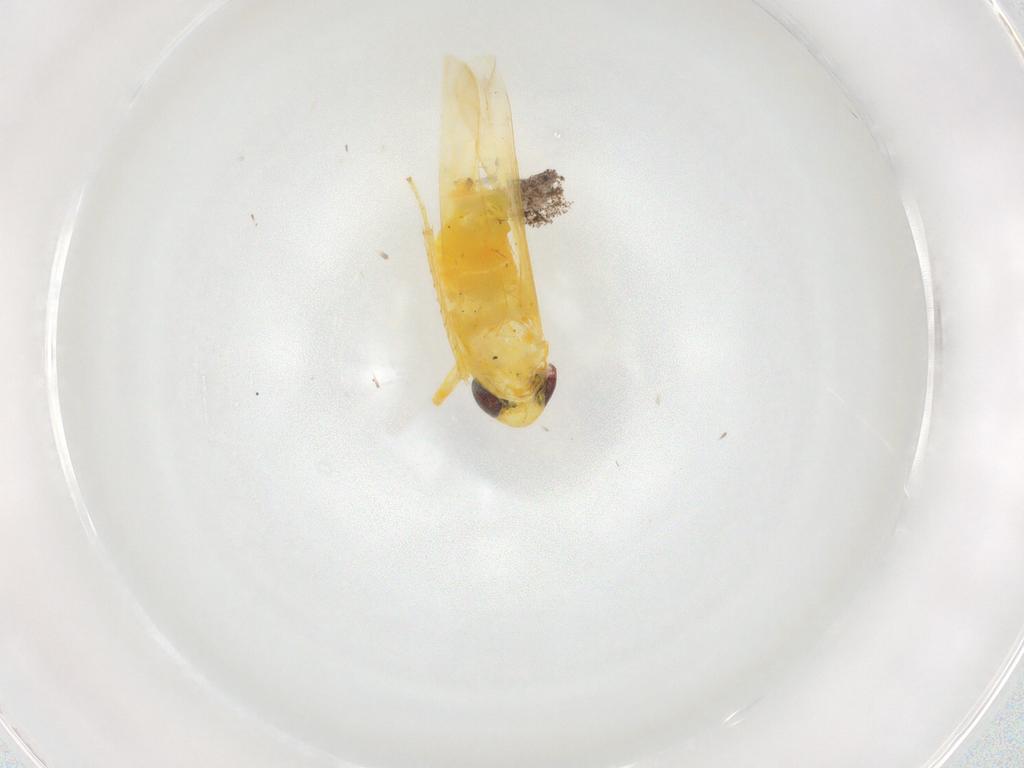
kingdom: Animalia
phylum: Arthropoda
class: Insecta
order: Hemiptera
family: Cicadellidae
